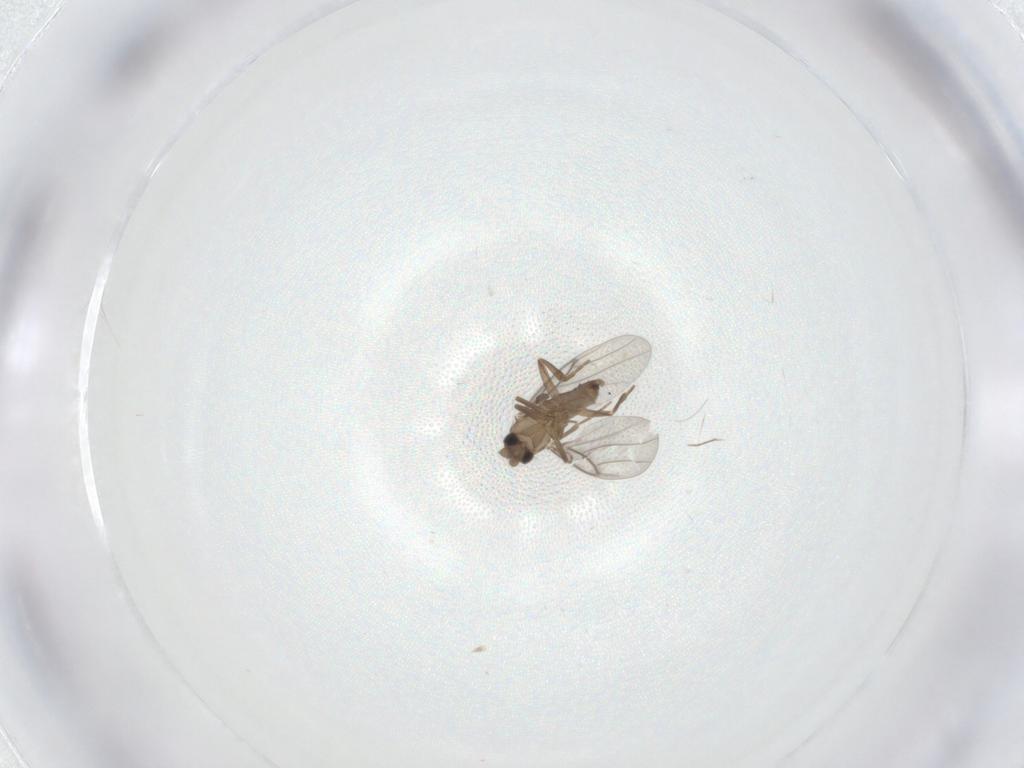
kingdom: Animalia
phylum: Arthropoda
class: Insecta
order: Diptera
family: Cecidomyiidae
